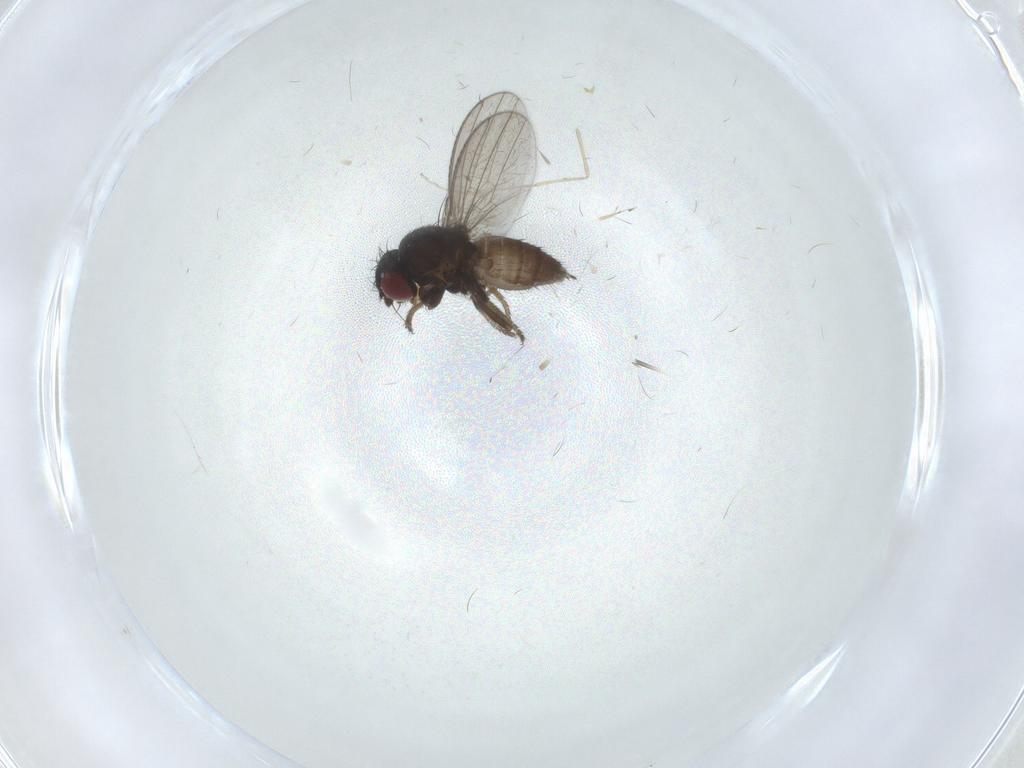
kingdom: Animalia
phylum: Arthropoda
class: Insecta
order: Diptera
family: Milichiidae
